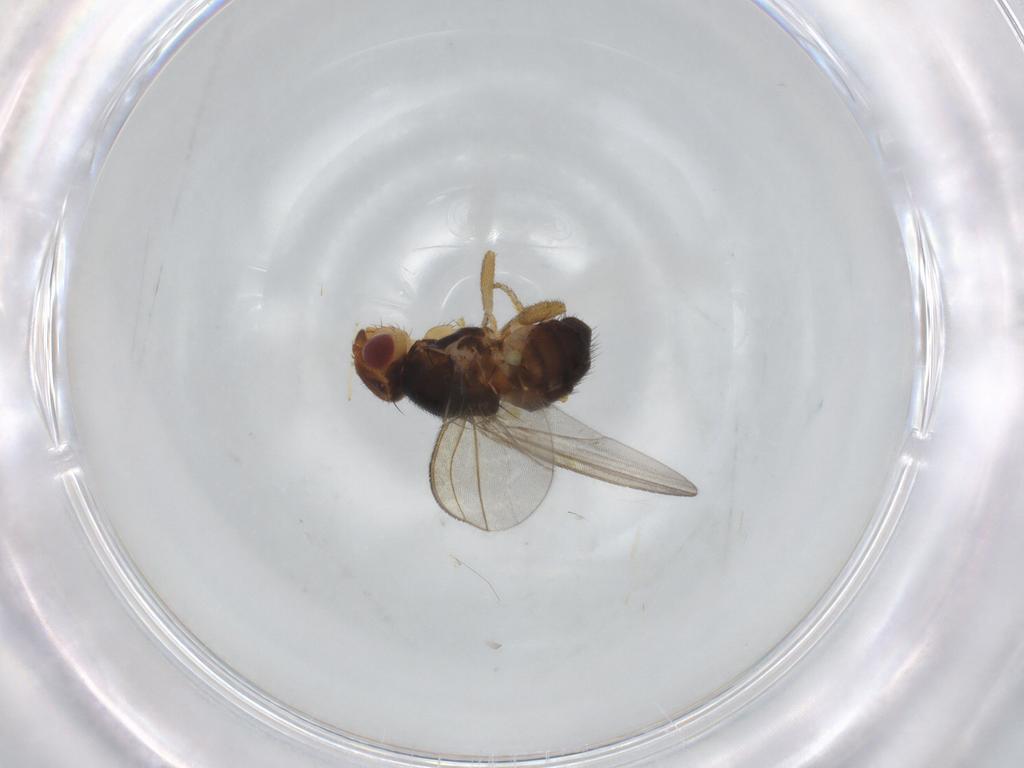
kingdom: Animalia
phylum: Arthropoda
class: Insecta
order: Diptera
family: Milichiidae
